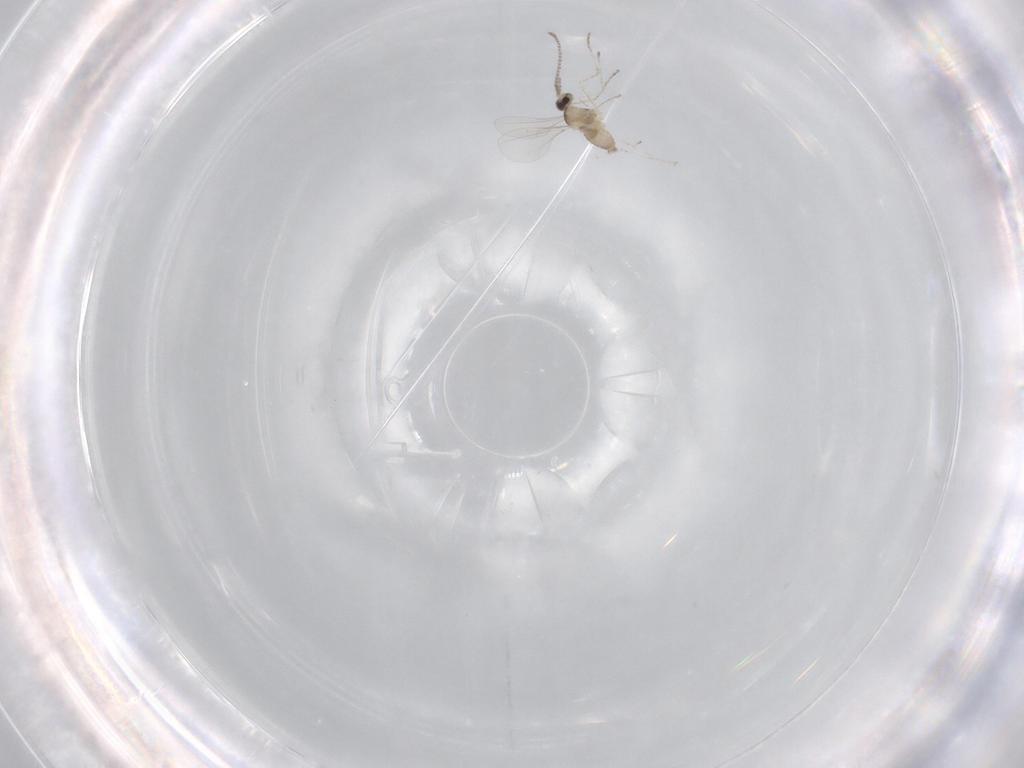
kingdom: Animalia
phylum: Arthropoda
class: Insecta
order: Diptera
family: Cecidomyiidae
